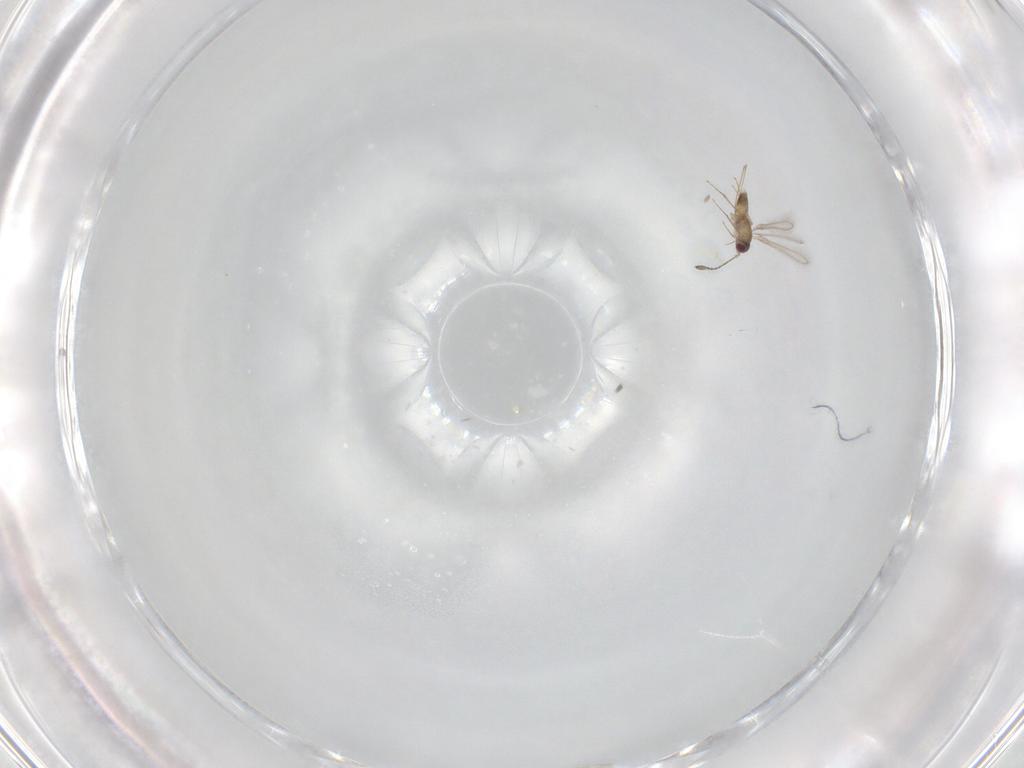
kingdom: Animalia
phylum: Arthropoda
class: Insecta
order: Hymenoptera
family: Mymaridae
